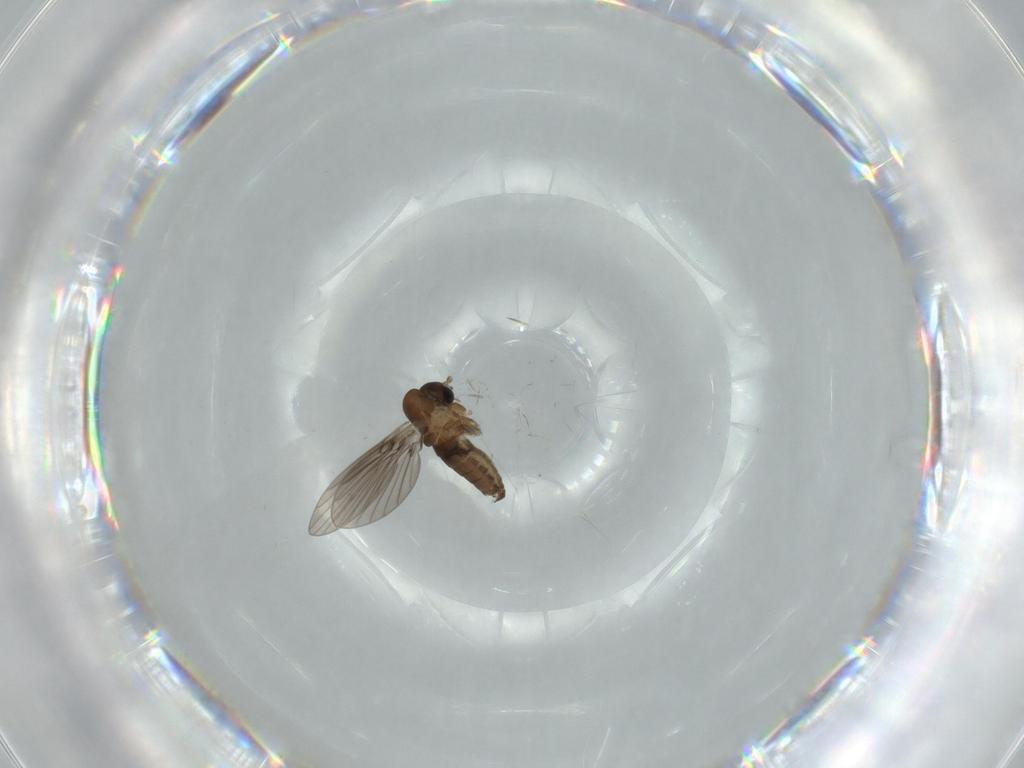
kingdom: Animalia
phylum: Arthropoda
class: Insecta
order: Diptera
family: Psychodidae
